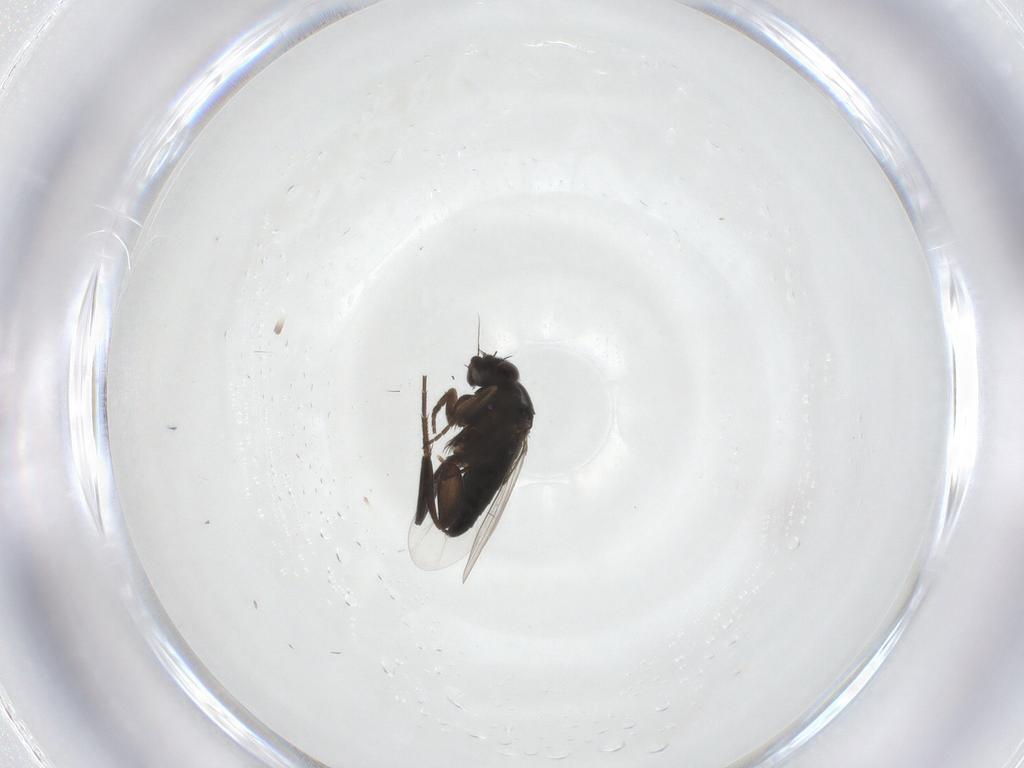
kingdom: Animalia
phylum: Arthropoda
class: Insecta
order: Diptera
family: Chloropidae
